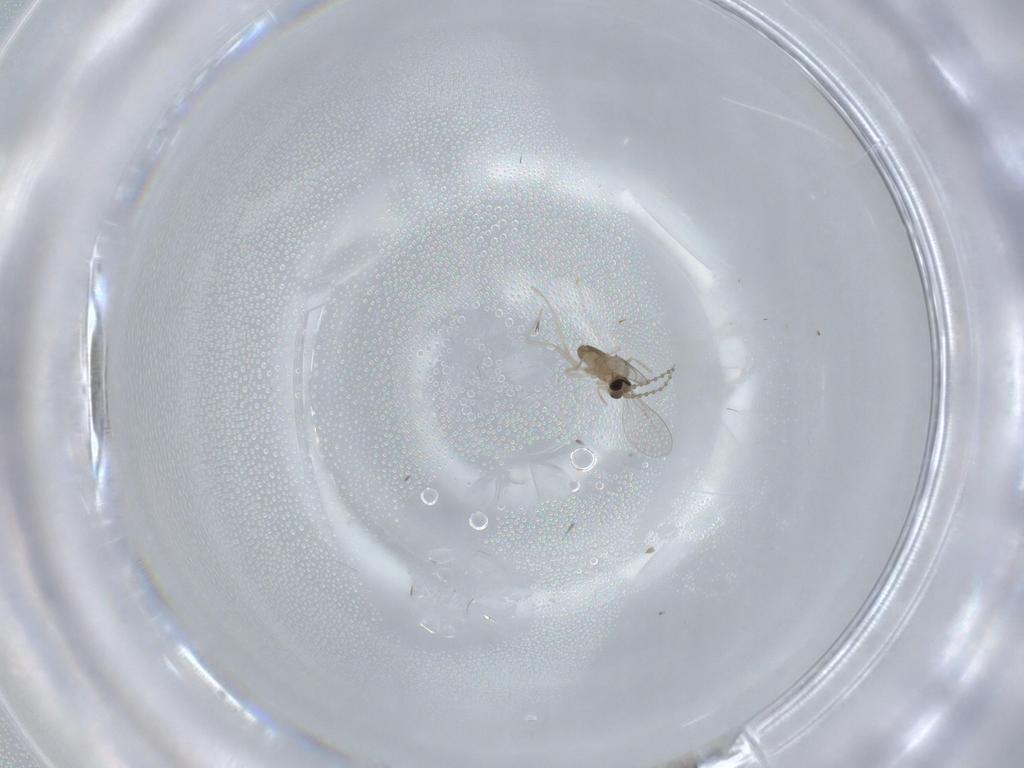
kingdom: Animalia
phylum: Arthropoda
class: Insecta
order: Diptera
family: Cecidomyiidae
